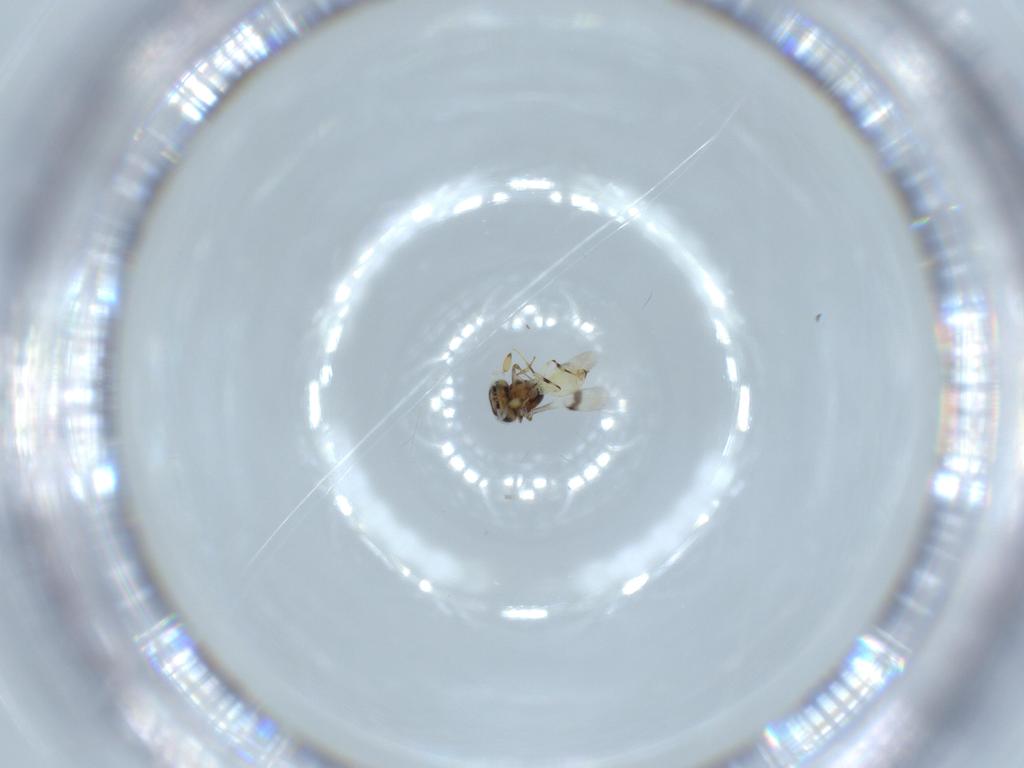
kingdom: Animalia
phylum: Arthropoda
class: Insecta
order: Hymenoptera
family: Scelionidae
